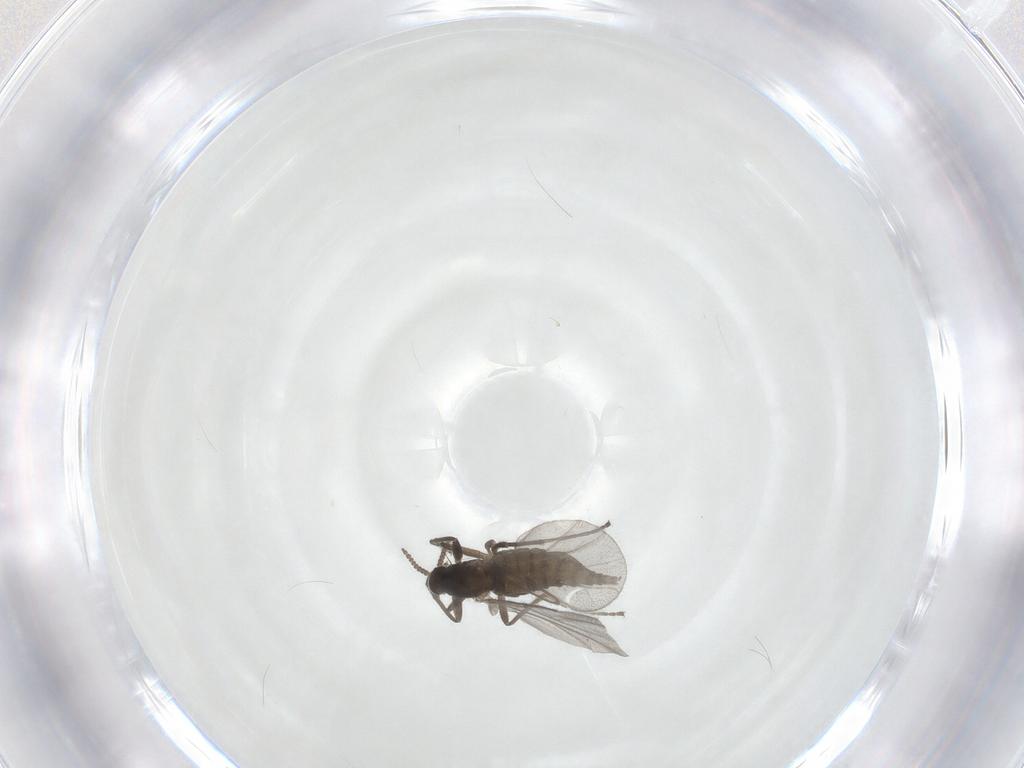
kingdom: Animalia
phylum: Arthropoda
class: Insecta
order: Diptera
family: Cecidomyiidae
